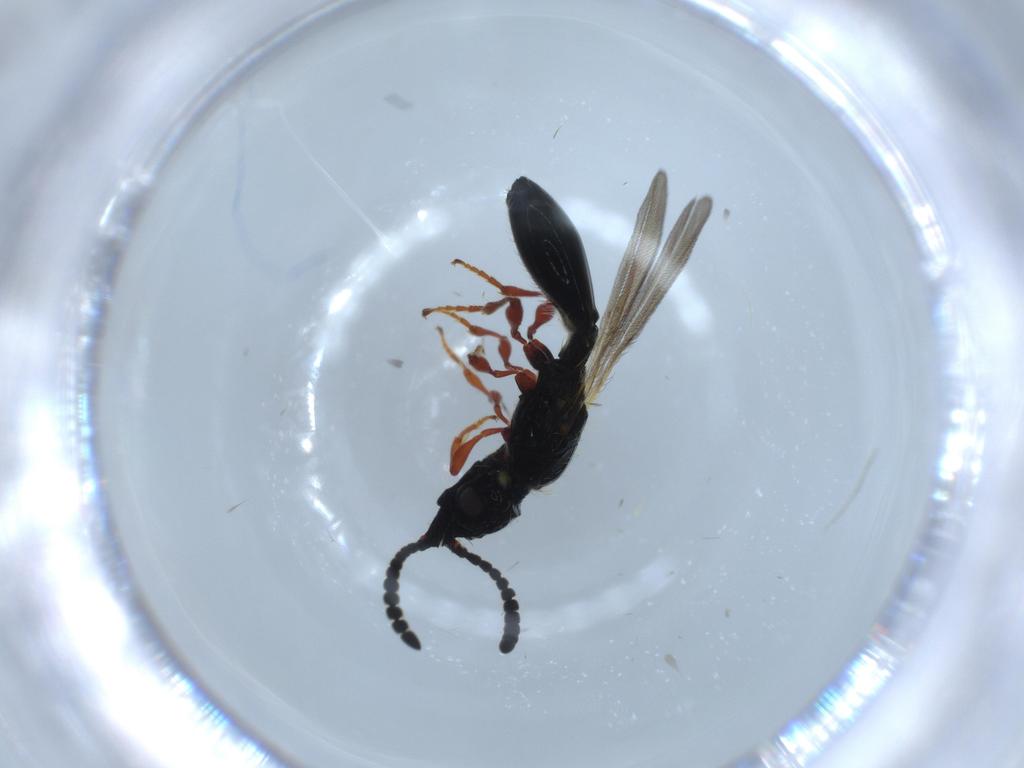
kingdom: Animalia
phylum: Arthropoda
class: Insecta
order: Hymenoptera
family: Diapriidae
